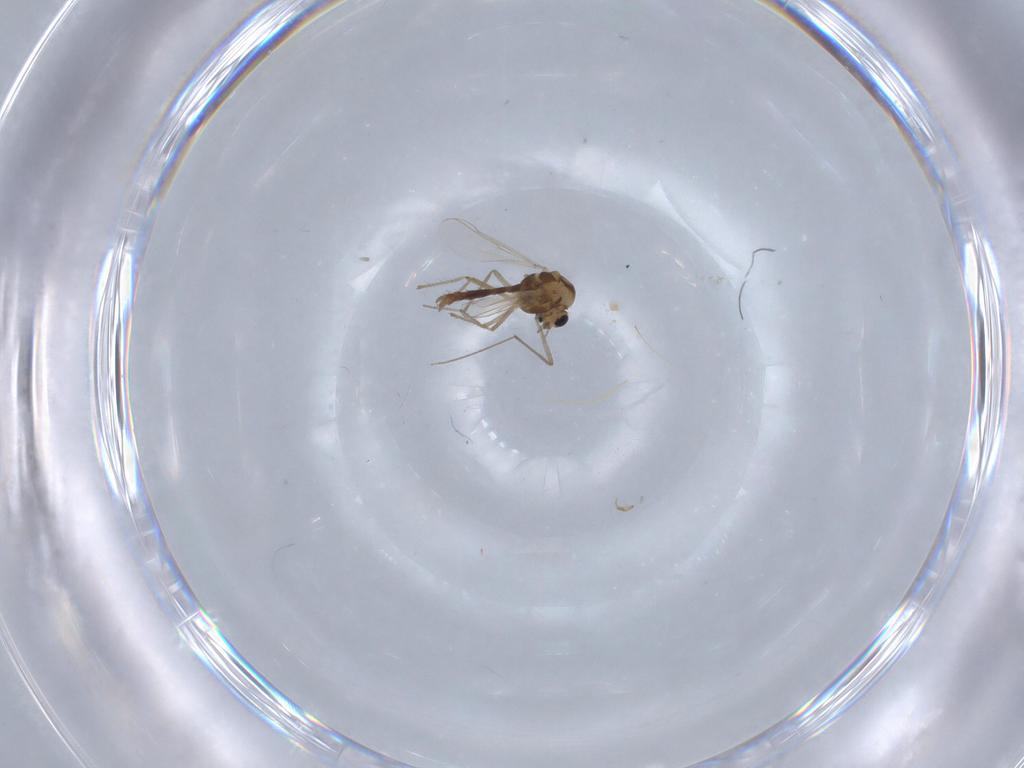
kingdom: Animalia
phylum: Arthropoda
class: Insecta
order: Diptera
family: Chironomidae
